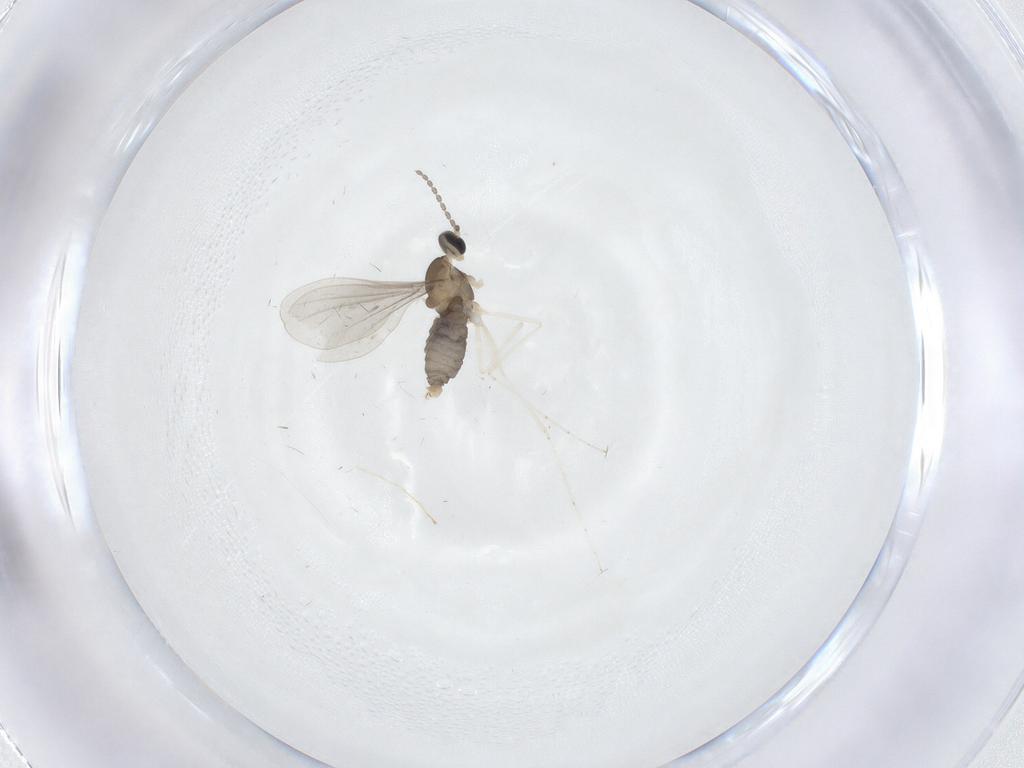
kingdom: Animalia
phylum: Arthropoda
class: Insecta
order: Diptera
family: Cecidomyiidae
